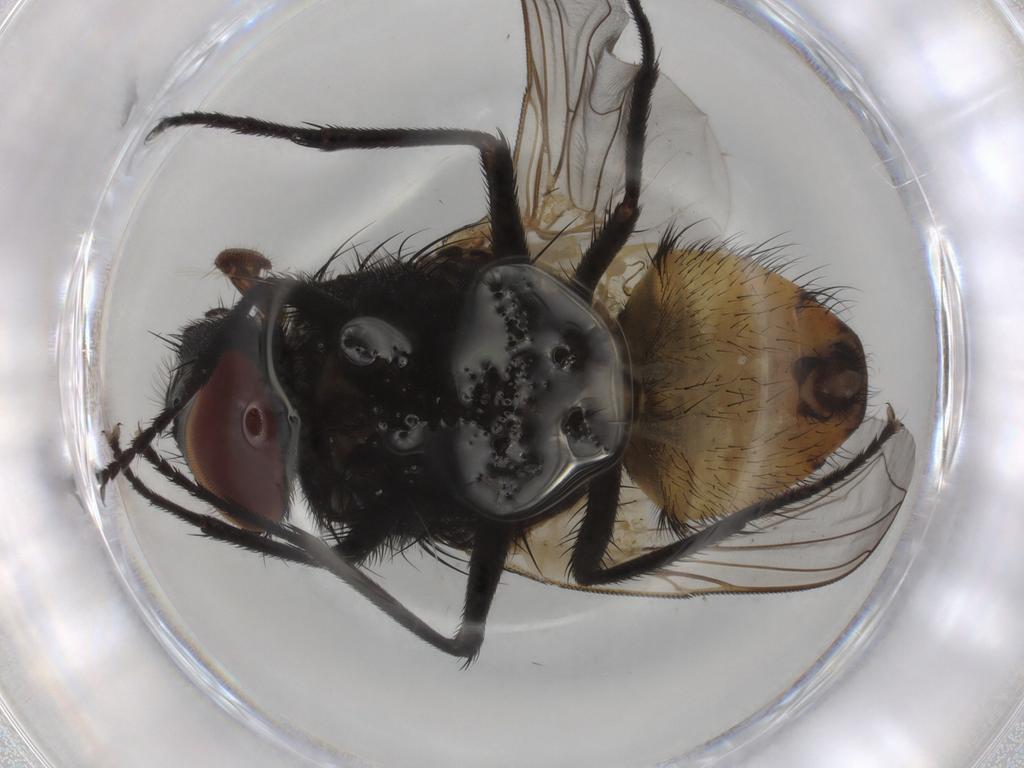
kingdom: Animalia
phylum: Arthropoda
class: Insecta
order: Diptera
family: Muscidae
